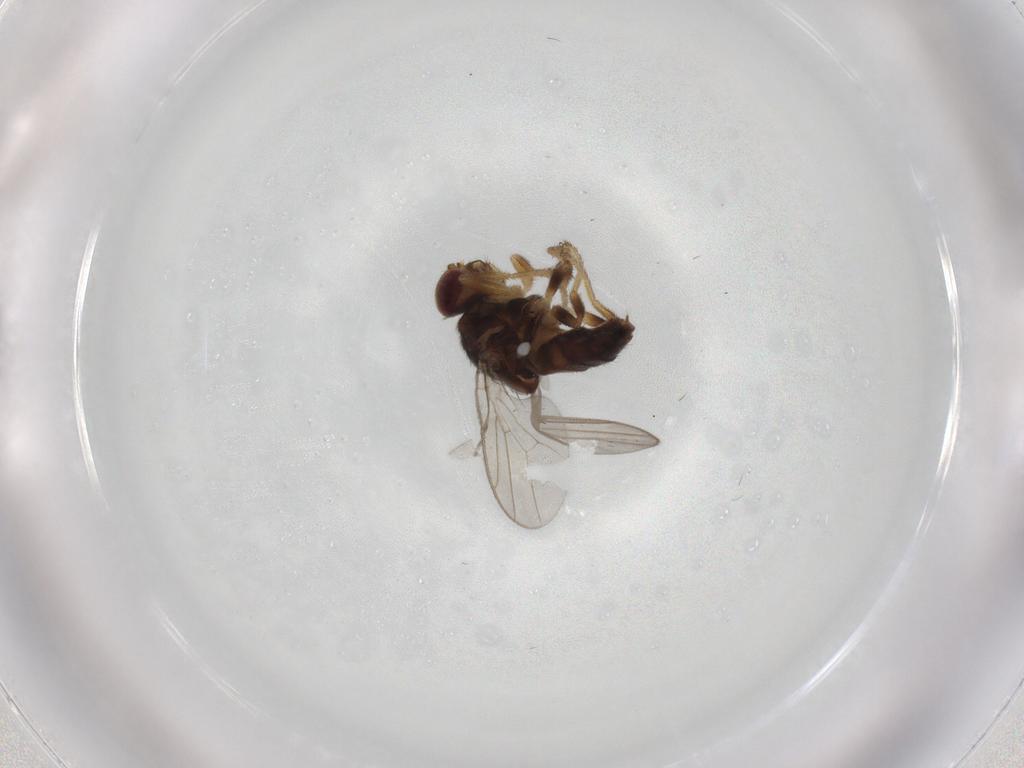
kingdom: Animalia
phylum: Arthropoda
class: Insecta
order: Diptera
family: Chloropidae
